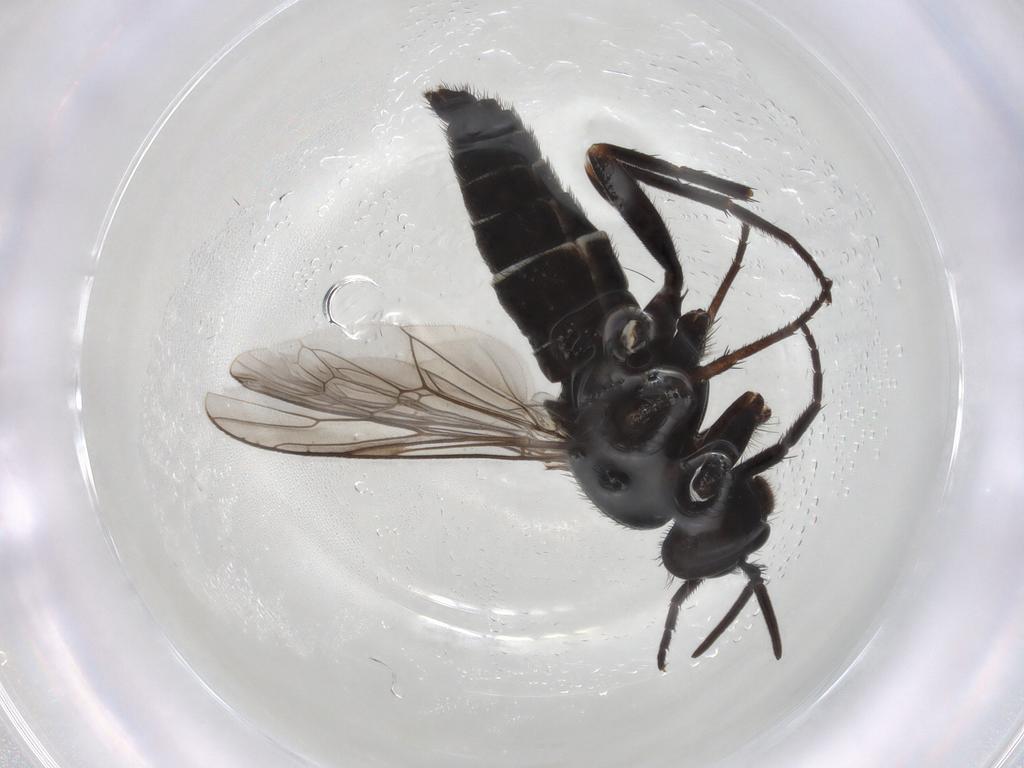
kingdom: Animalia
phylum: Arthropoda
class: Insecta
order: Diptera
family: Therevidae
